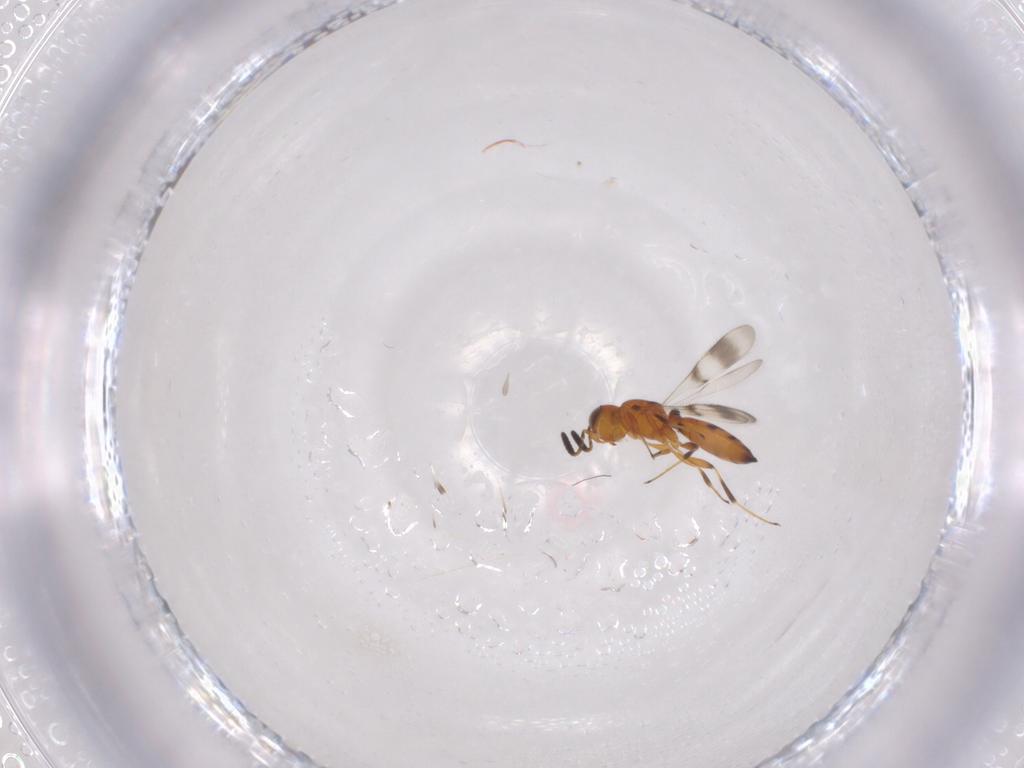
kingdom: Animalia
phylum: Arthropoda
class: Insecta
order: Hymenoptera
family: Scelionidae
